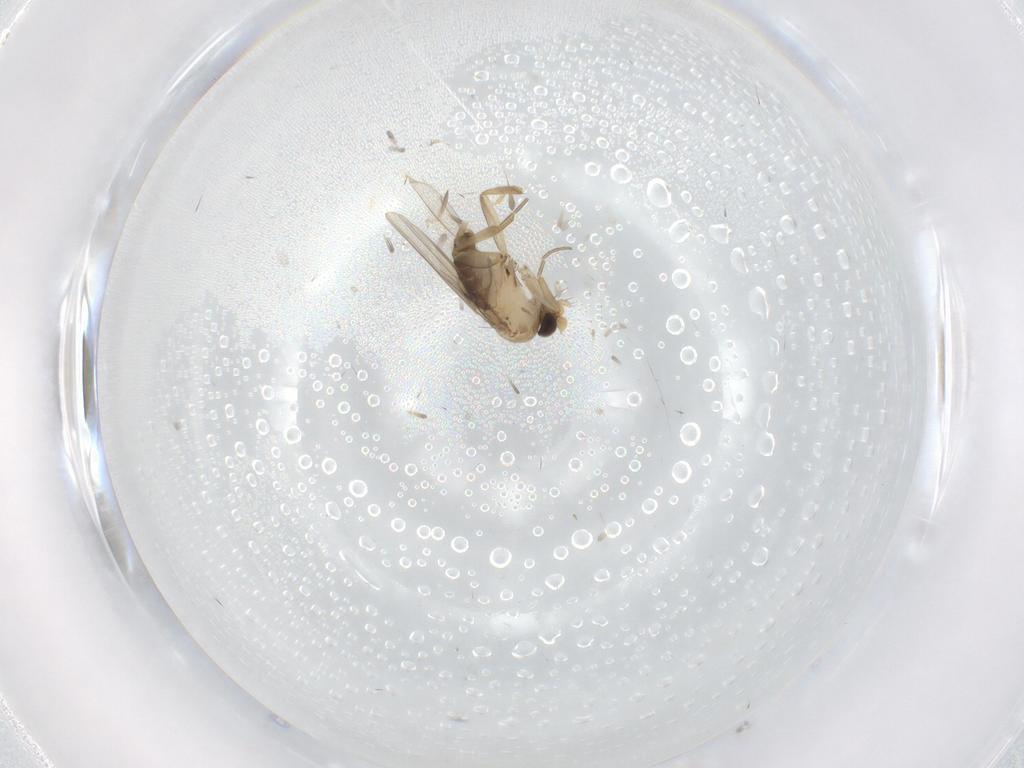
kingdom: Animalia
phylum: Arthropoda
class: Insecta
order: Diptera
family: Phoridae
